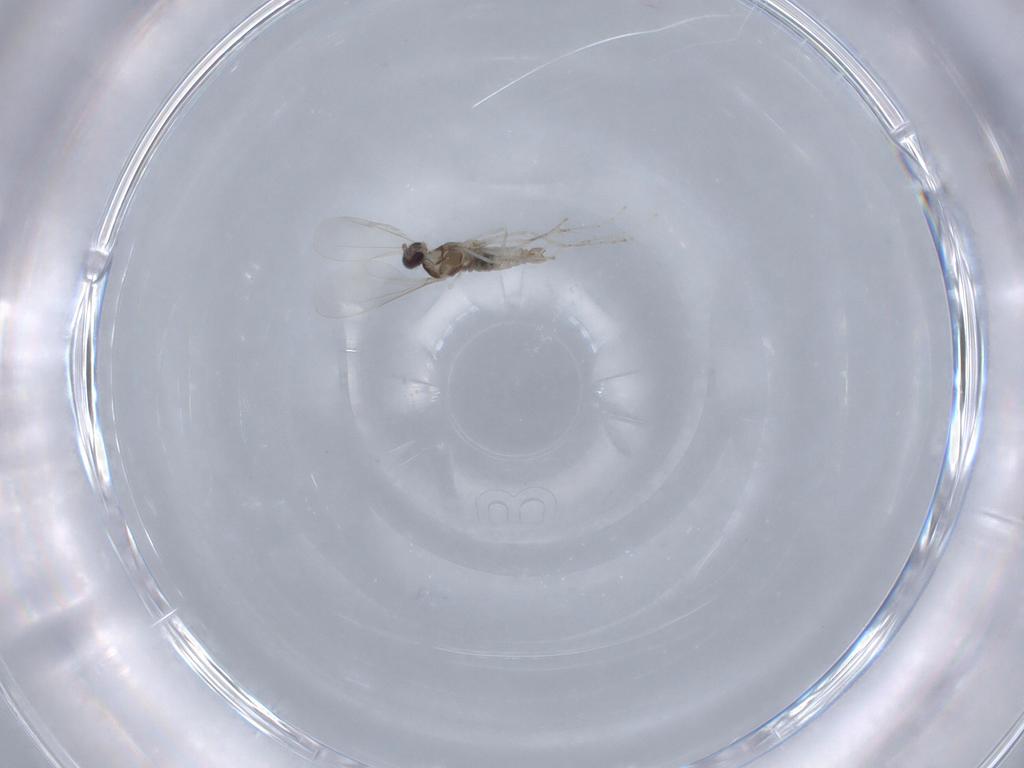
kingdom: Animalia
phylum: Arthropoda
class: Insecta
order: Diptera
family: Cecidomyiidae
